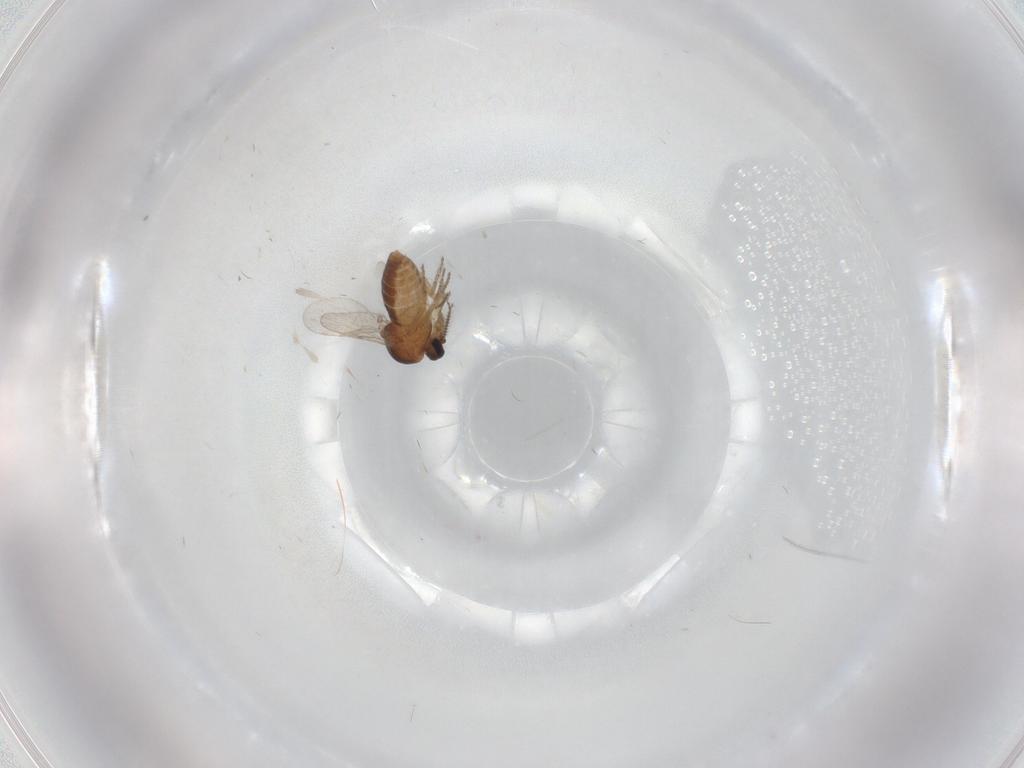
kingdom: Animalia
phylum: Arthropoda
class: Insecta
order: Diptera
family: Ceratopogonidae
